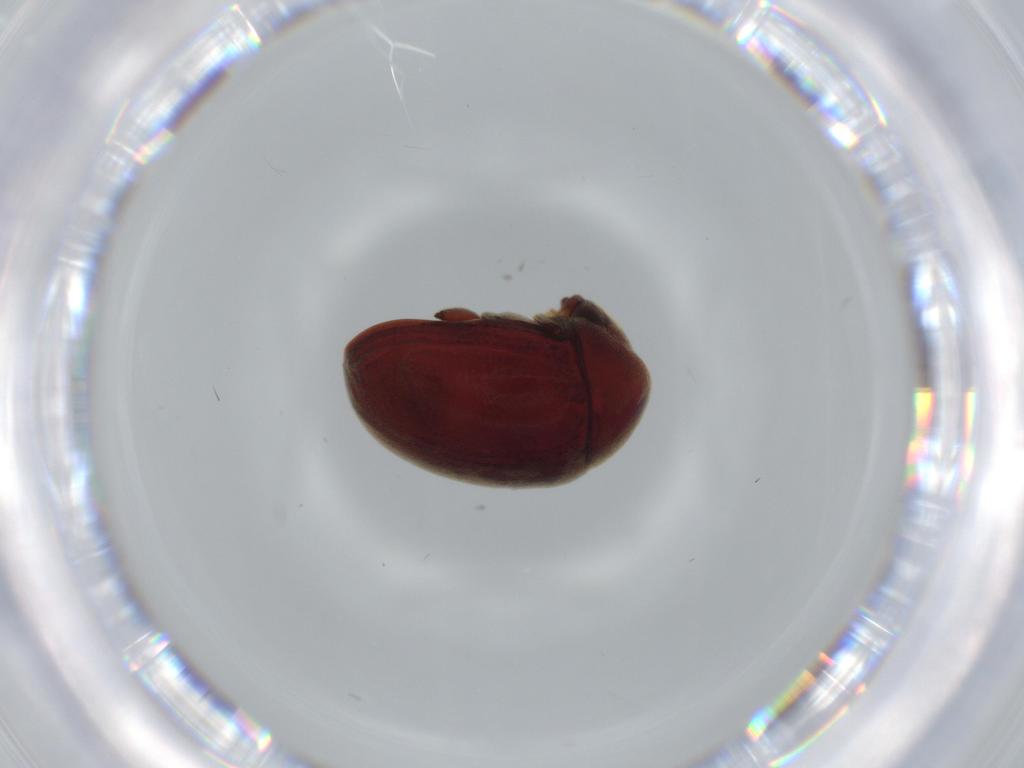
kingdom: Animalia
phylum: Arthropoda
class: Insecta
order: Coleoptera
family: Ptinidae
